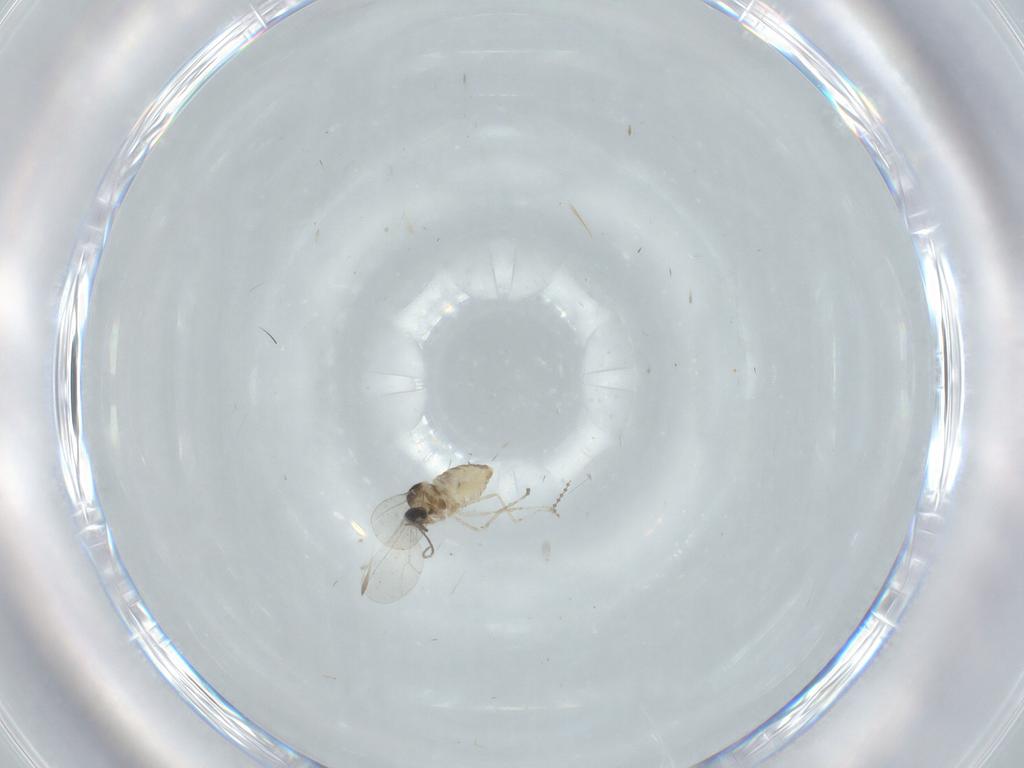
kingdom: Animalia
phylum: Arthropoda
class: Insecta
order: Diptera
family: Cecidomyiidae
